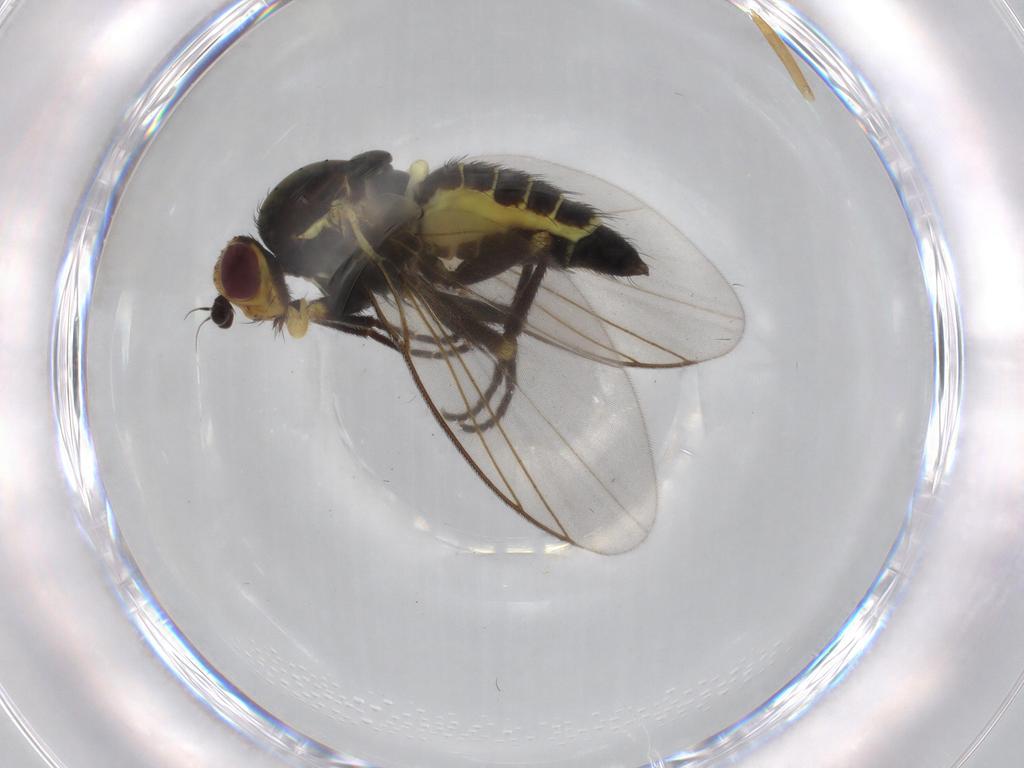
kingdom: Animalia
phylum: Arthropoda
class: Insecta
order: Diptera
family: Agromyzidae
